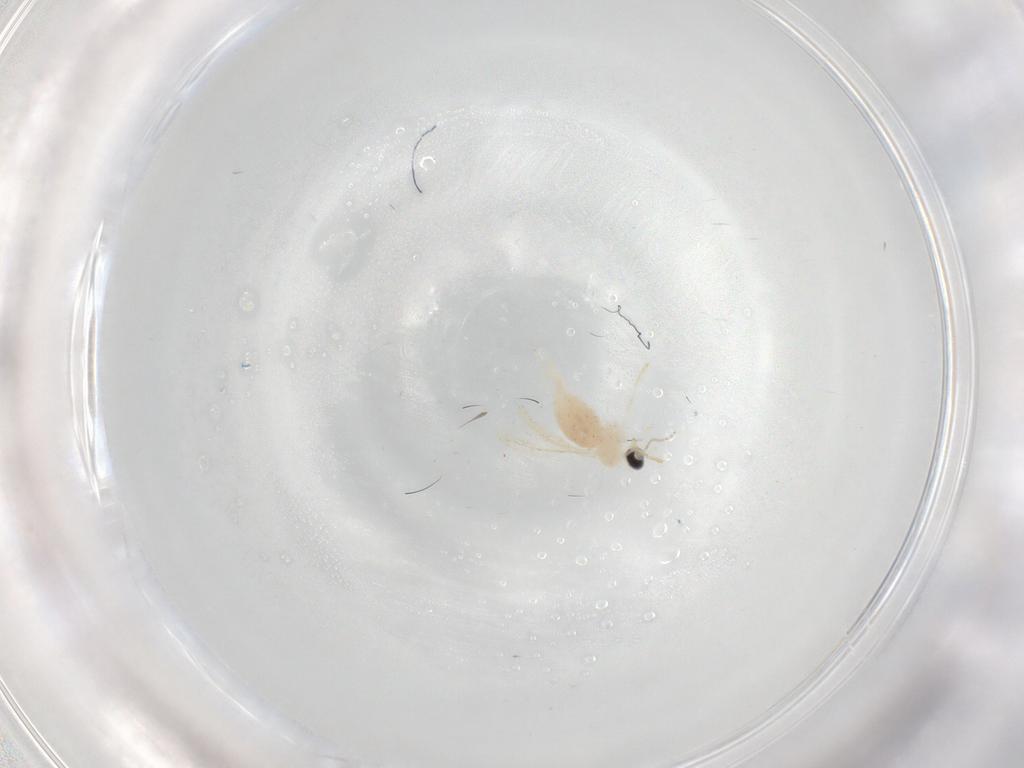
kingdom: Animalia
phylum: Arthropoda
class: Insecta
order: Diptera
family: Cecidomyiidae
